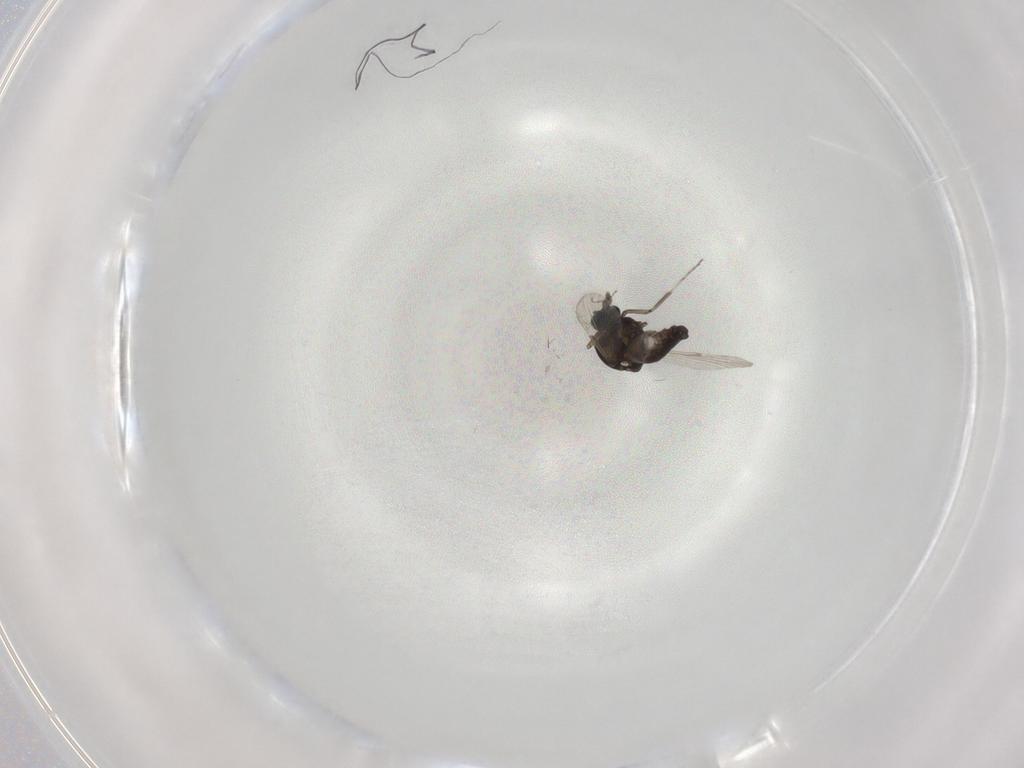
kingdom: Animalia
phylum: Arthropoda
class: Insecta
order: Diptera
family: Ceratopogonidae
